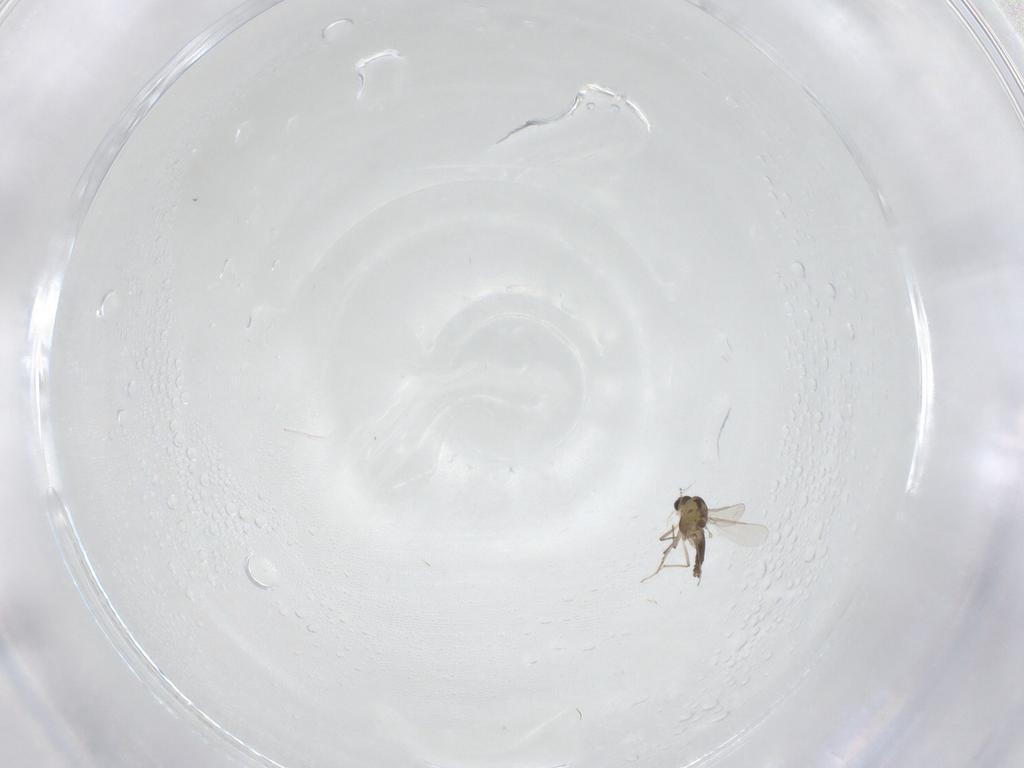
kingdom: Animalia
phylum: Arthropoda
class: Insecta
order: Diptera
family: Chironomidae
